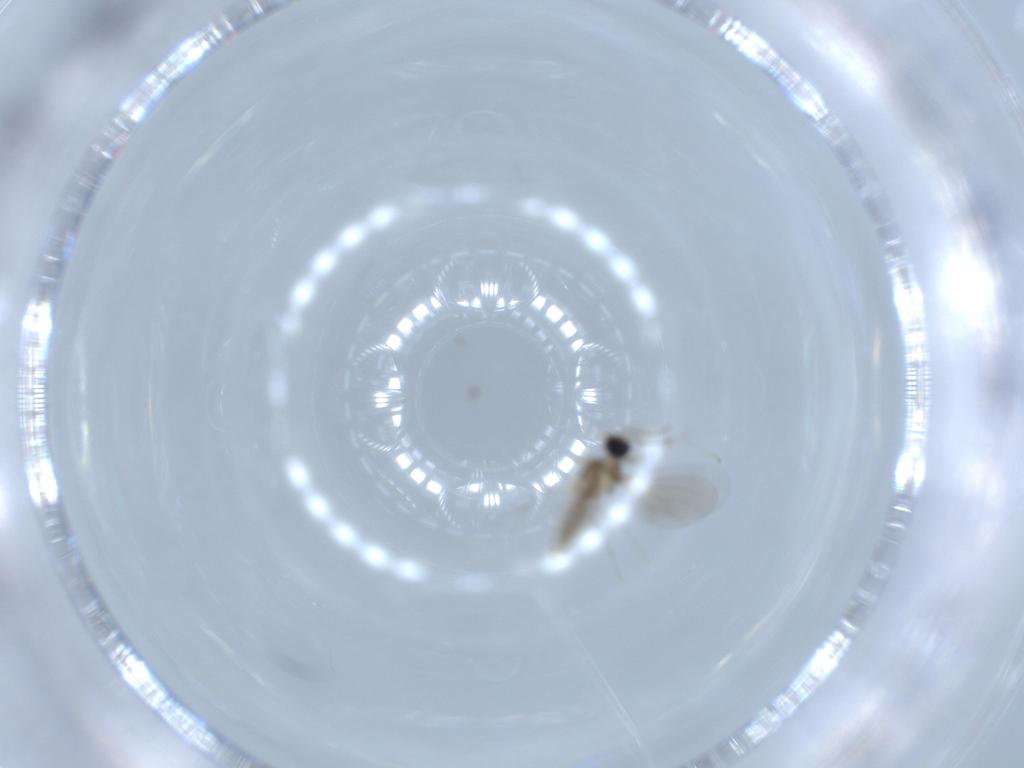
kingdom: Animalia
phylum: Arthropoda
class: Insecta
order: Diptera
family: Cecidomyiidae
